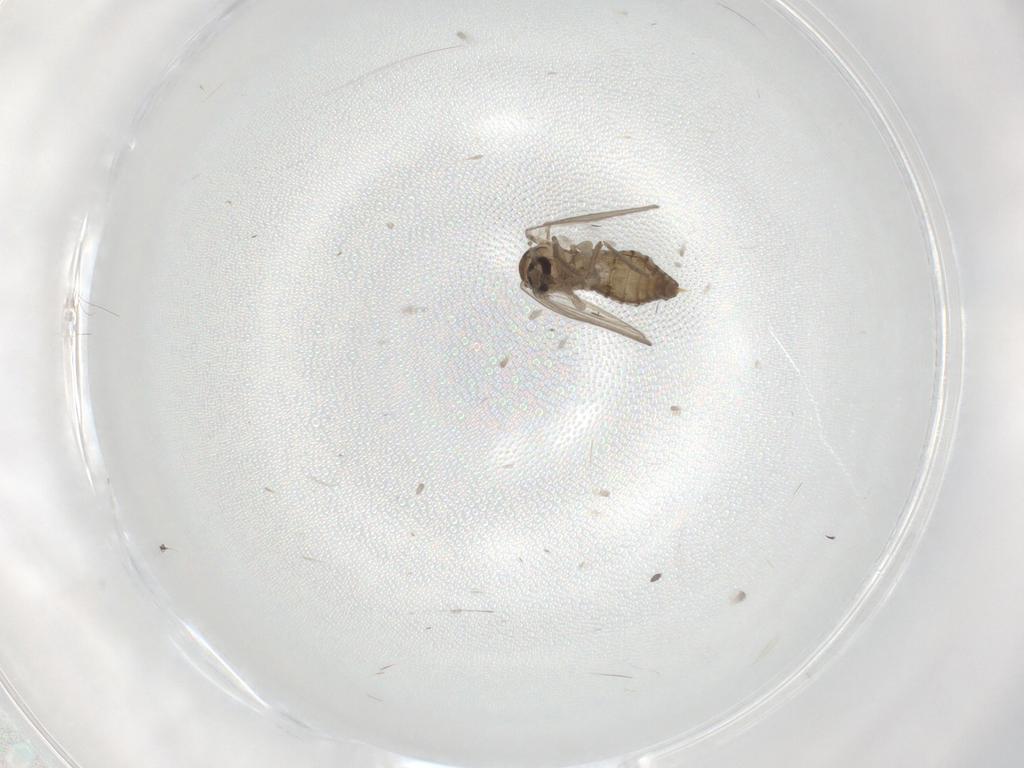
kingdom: Animalia
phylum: Arthropoda
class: Insecta
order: Diptera
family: Psychodidae
